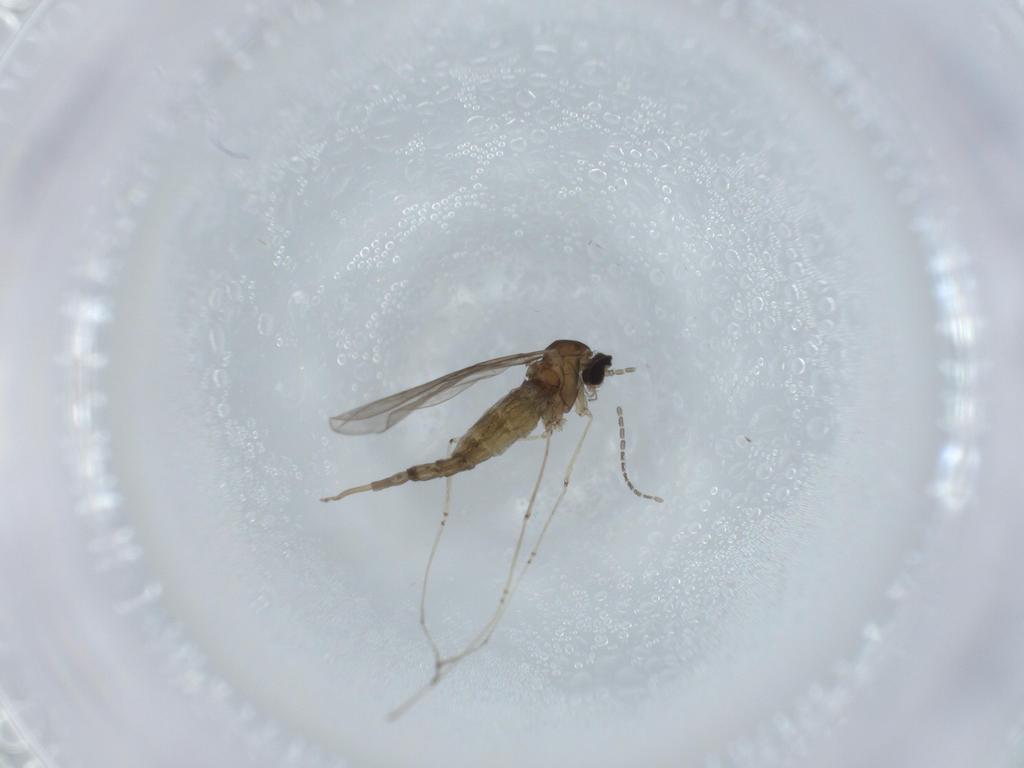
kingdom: Animalia
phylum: Arthropoda
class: Insecta
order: Diptera
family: Cecidomyiidae
